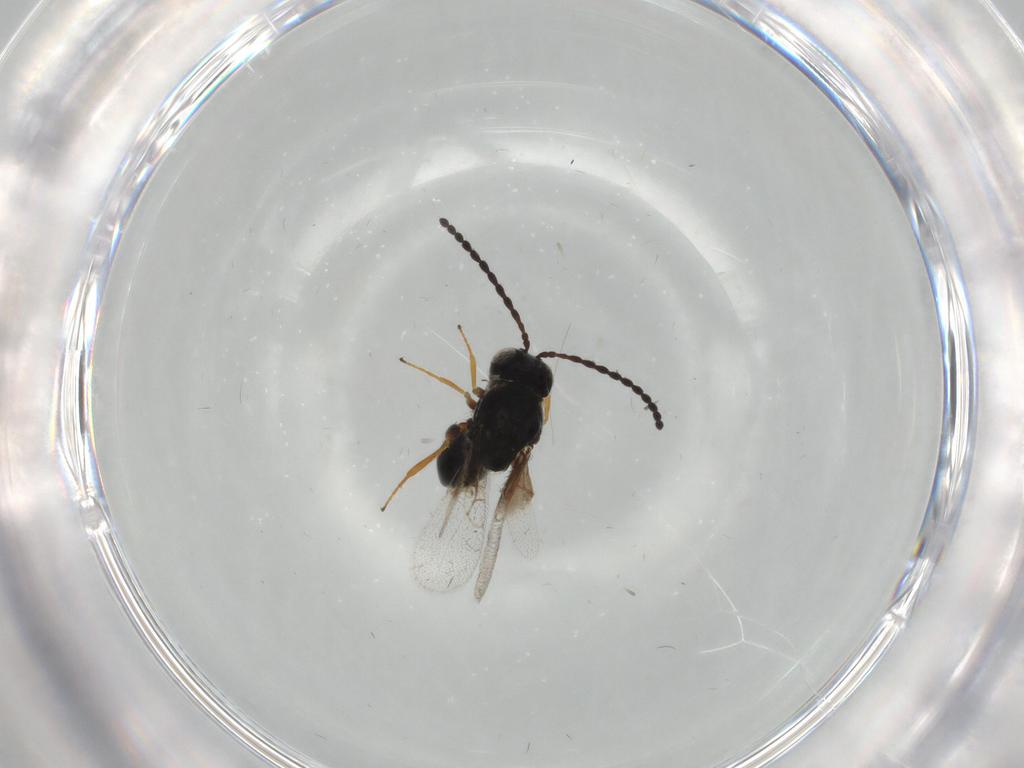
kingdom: Animalia
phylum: Arthropoda
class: Insecta
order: Hymenoptera
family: Figitidae
